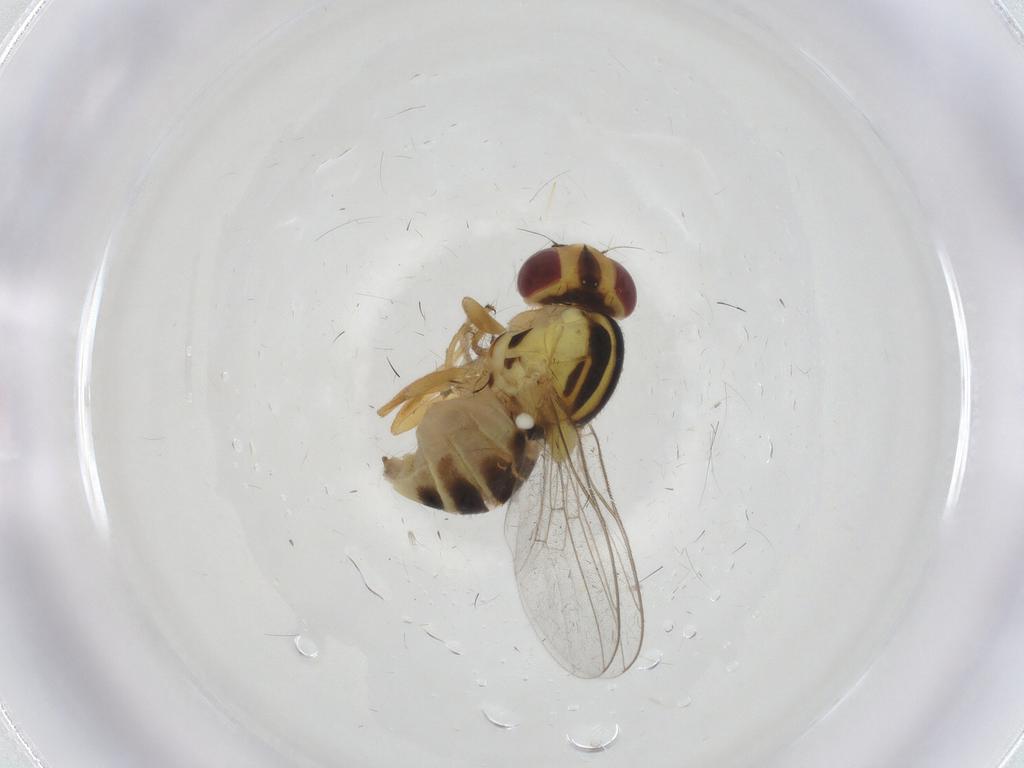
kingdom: Animalia
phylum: Arthropoda
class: Insecta
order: Diptera
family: Chloropidae
